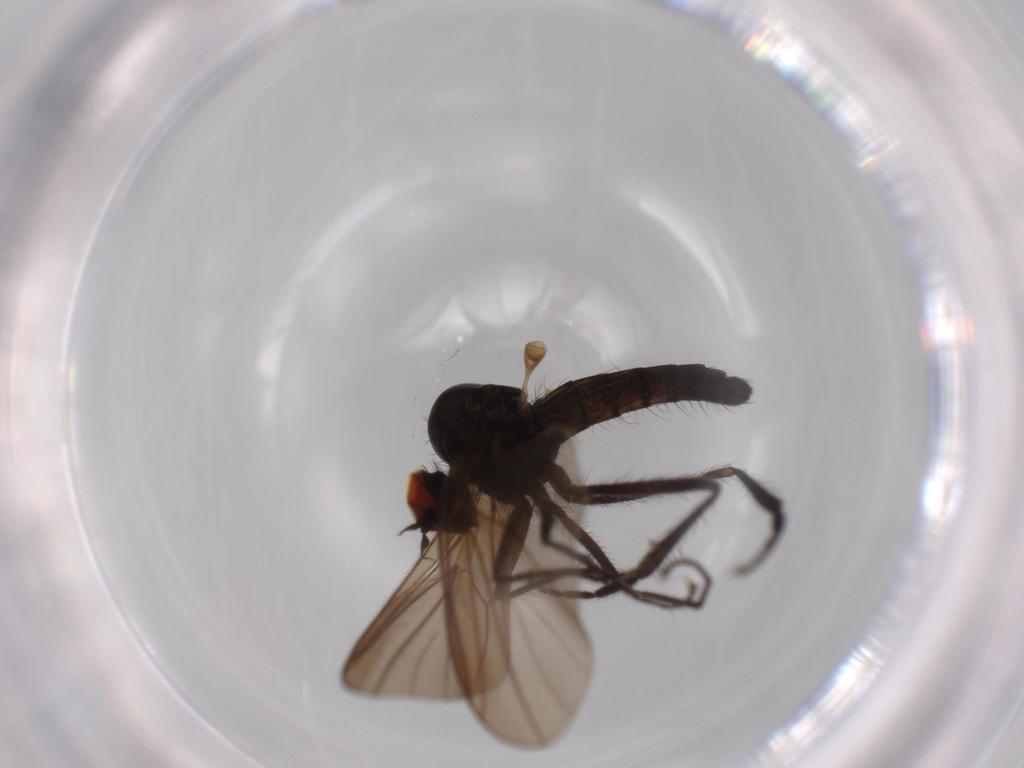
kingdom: Animalia
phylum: Arthropoda
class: Insecta
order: Diptera
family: Hybotidae
